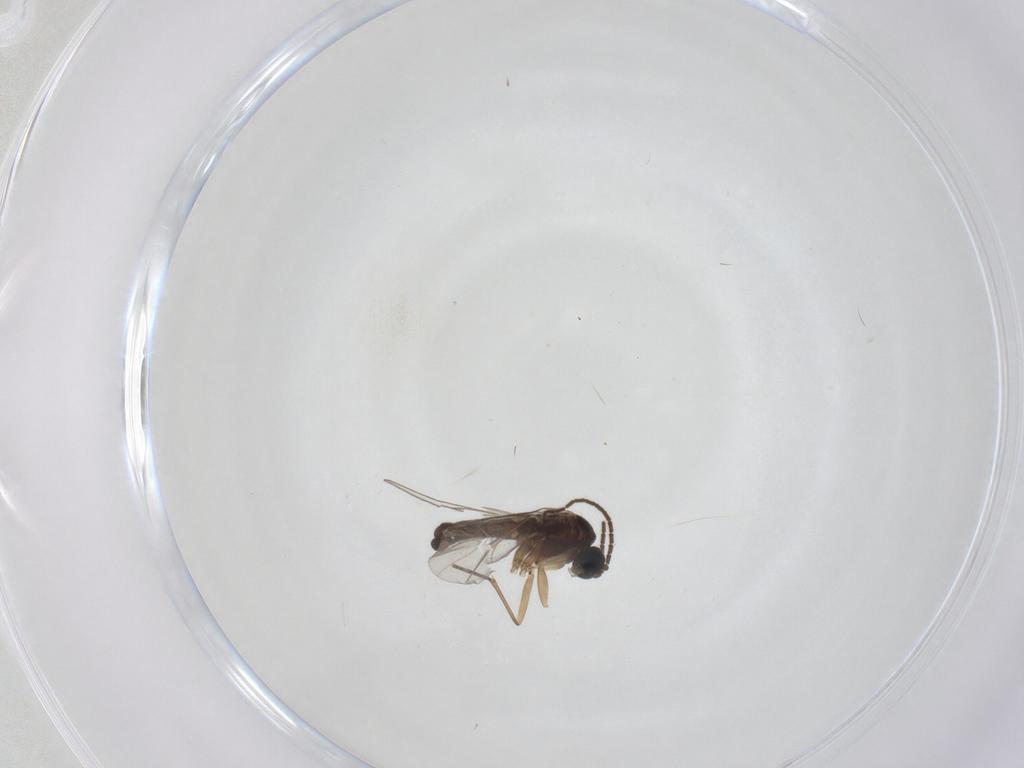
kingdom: Animalia
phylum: Arthropoda
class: Insecta
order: Diptera
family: Sciaridae
